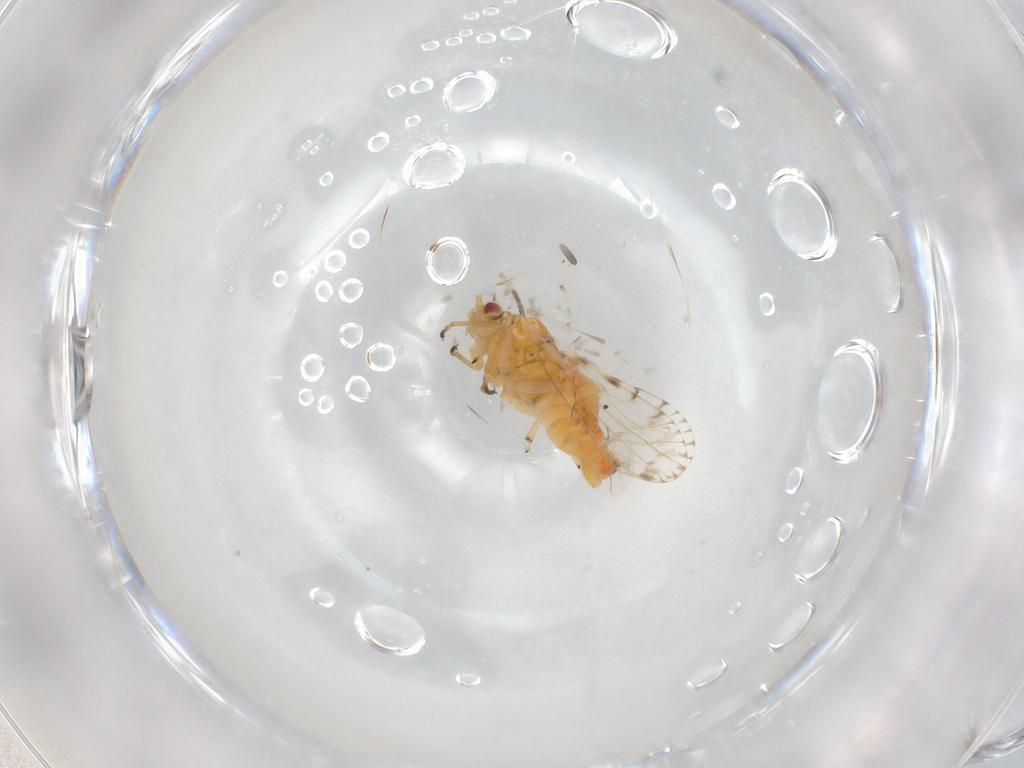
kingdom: Animalia
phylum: Arthropoda
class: Insecta
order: Hemiptera
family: Psyllidae
